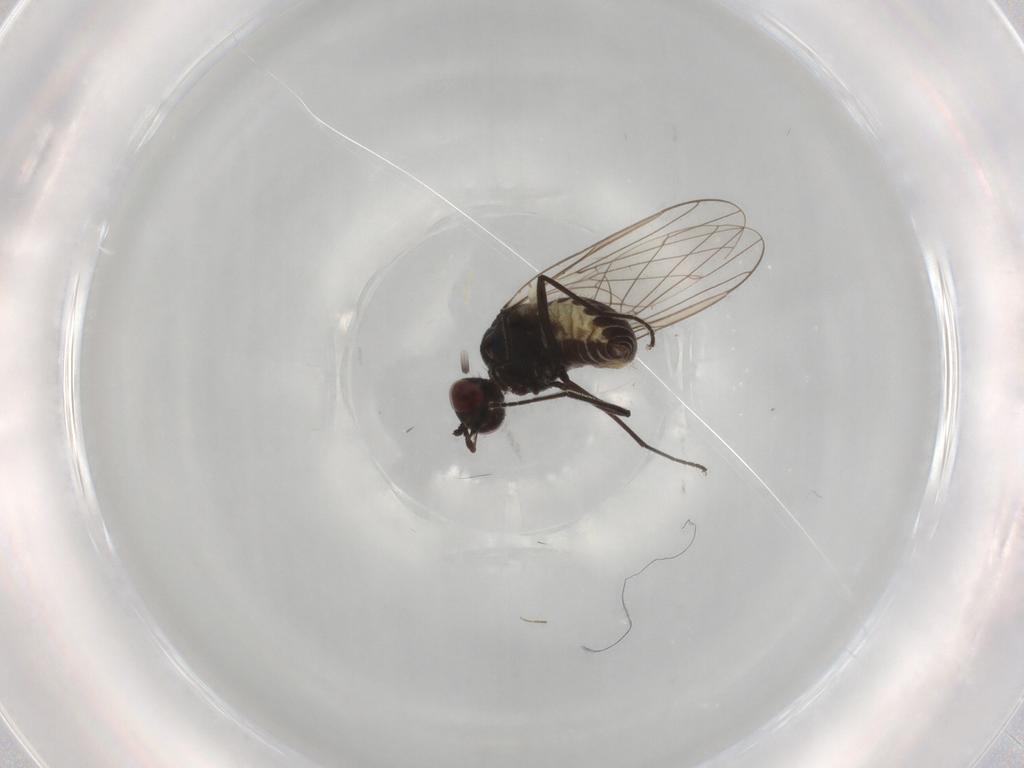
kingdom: Animalia
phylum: Arthropoda
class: Insecta
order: Diptera
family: Bombyliidae
